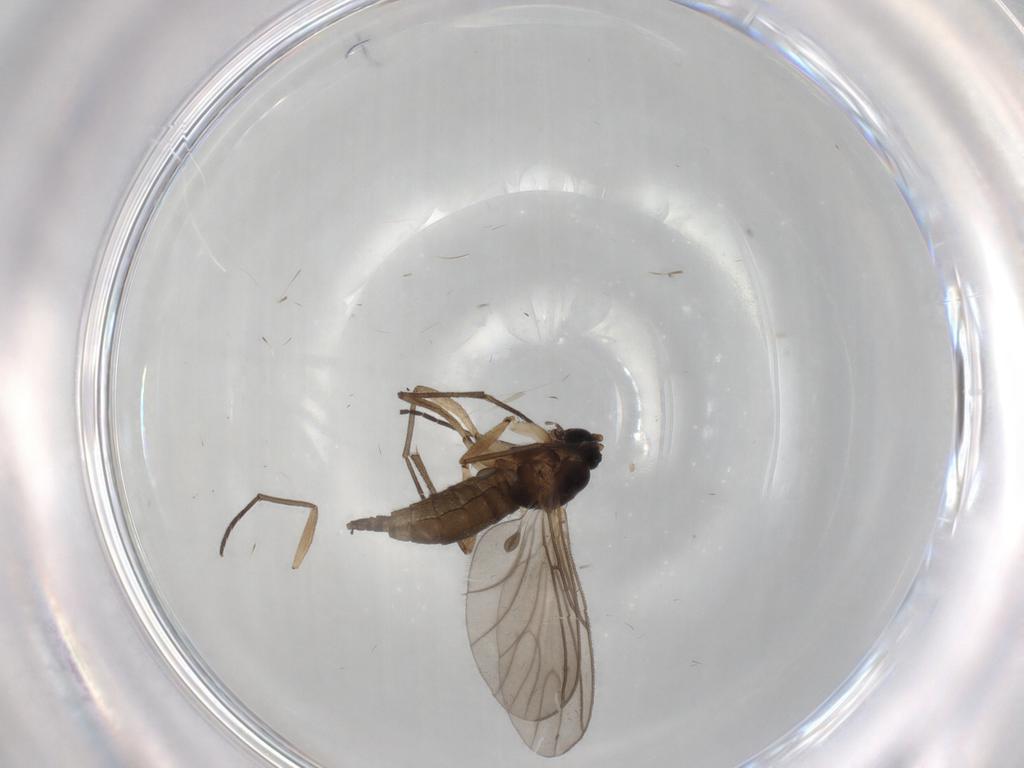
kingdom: Animalia
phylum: Arthropoda
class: Insecta
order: Diptera
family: Sciaridae
